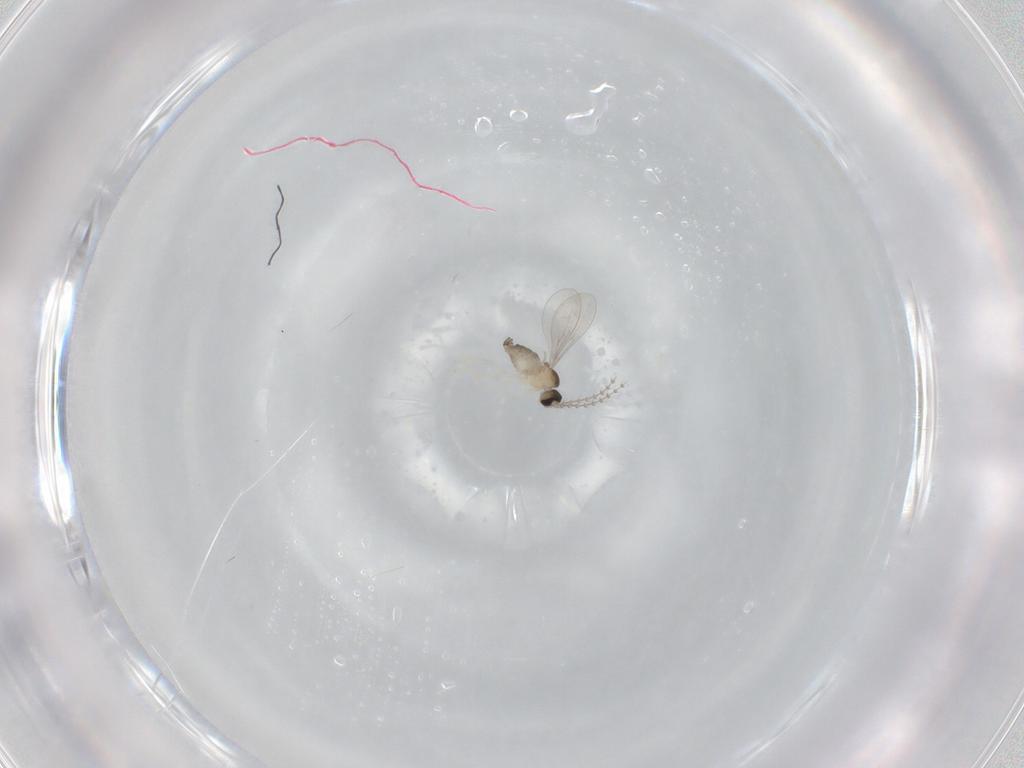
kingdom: Animalia
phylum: Arthropoda
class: Insecta
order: Diptera
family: Cecidomyiidae
